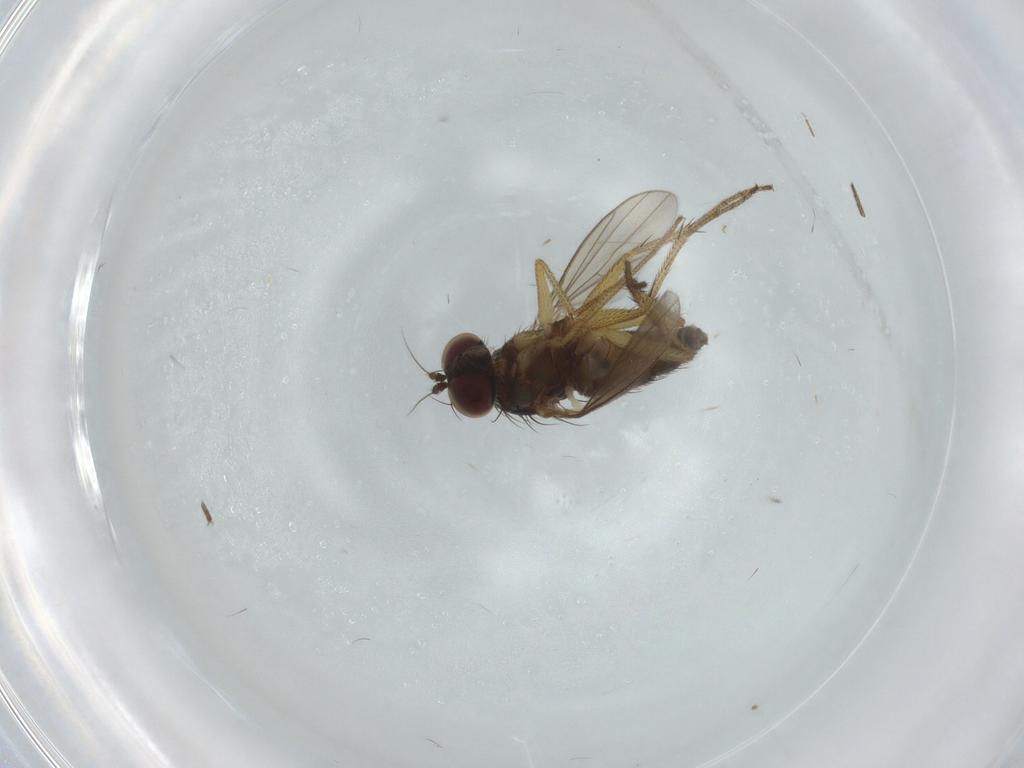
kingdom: Animalia
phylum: Arthropoda
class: Insecta
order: Diptera
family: Dolichopodidae
